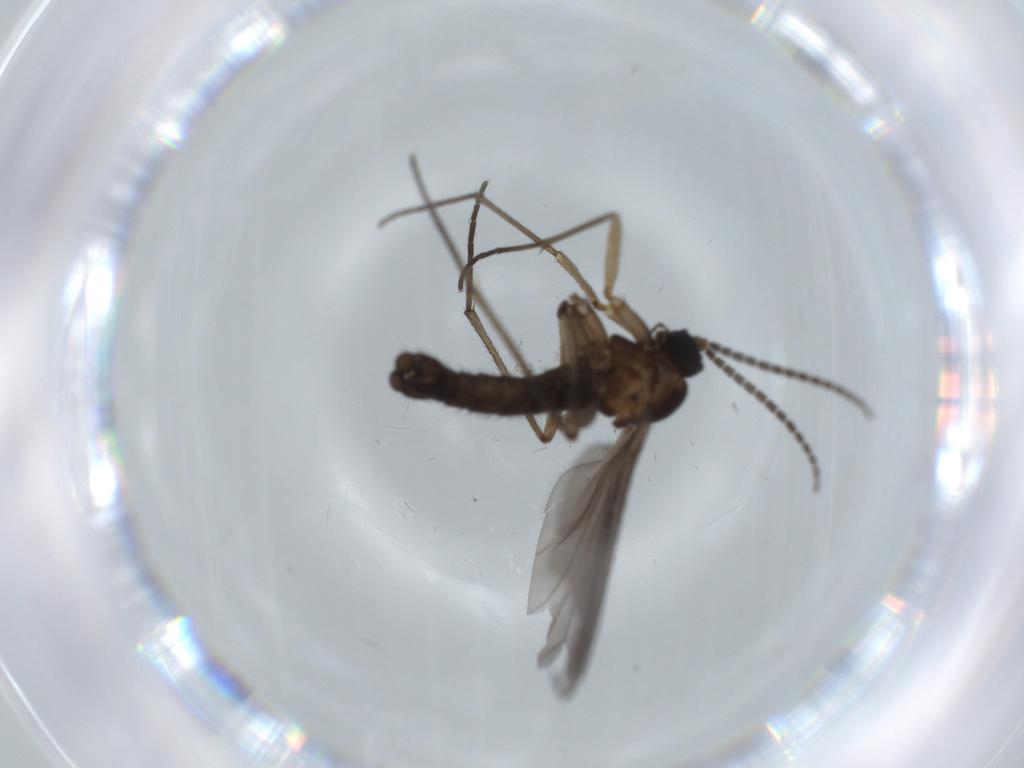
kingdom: Animalia
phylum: Arthropoda
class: Insecta
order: Diptera
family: Sciaridae
